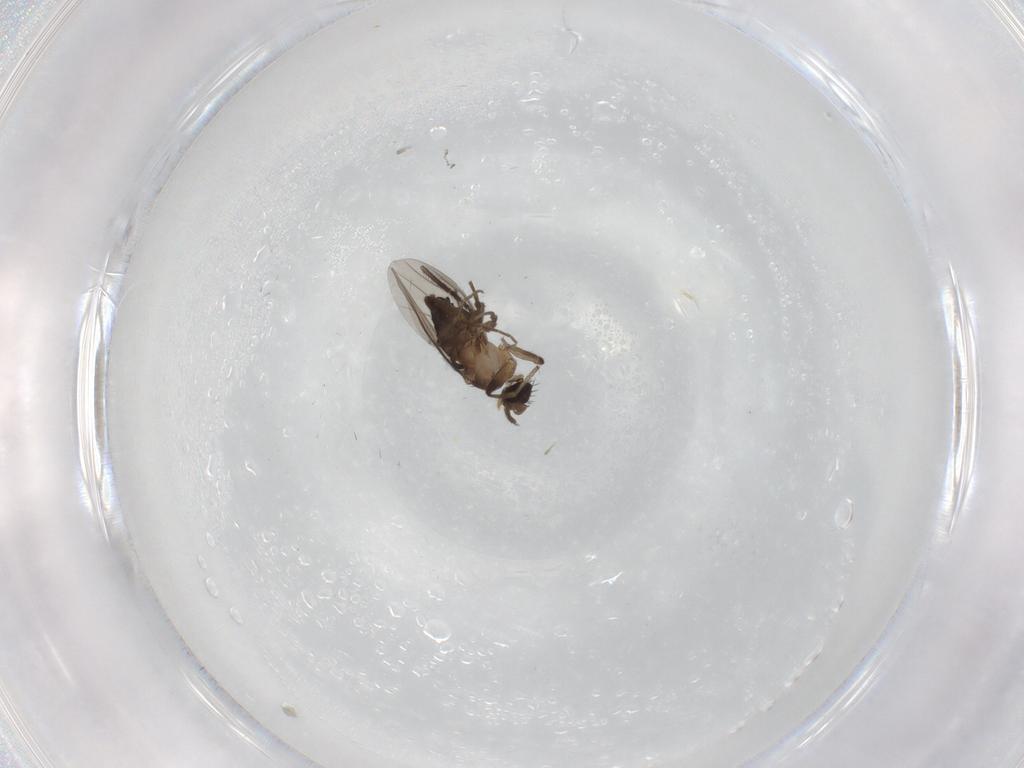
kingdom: Animalia
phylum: Arthropoda
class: Insecta
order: Diptera
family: Phoridae
